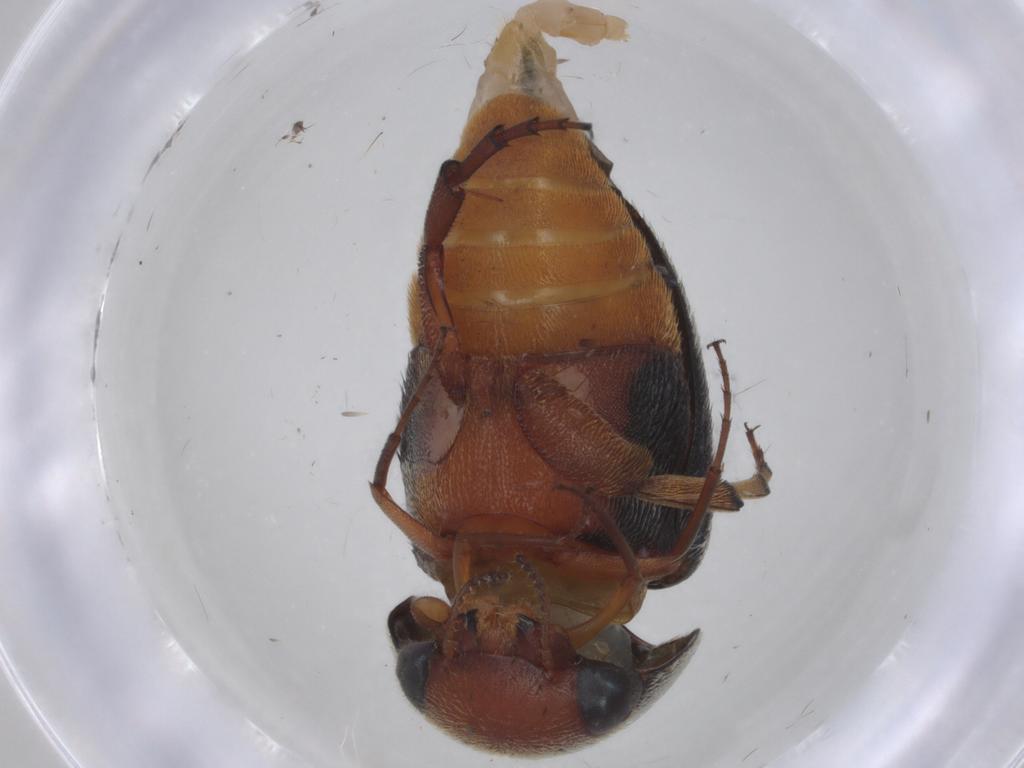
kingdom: Animalia
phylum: Arthropoda
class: Insecta
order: Coleoptera
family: Mordellidae
